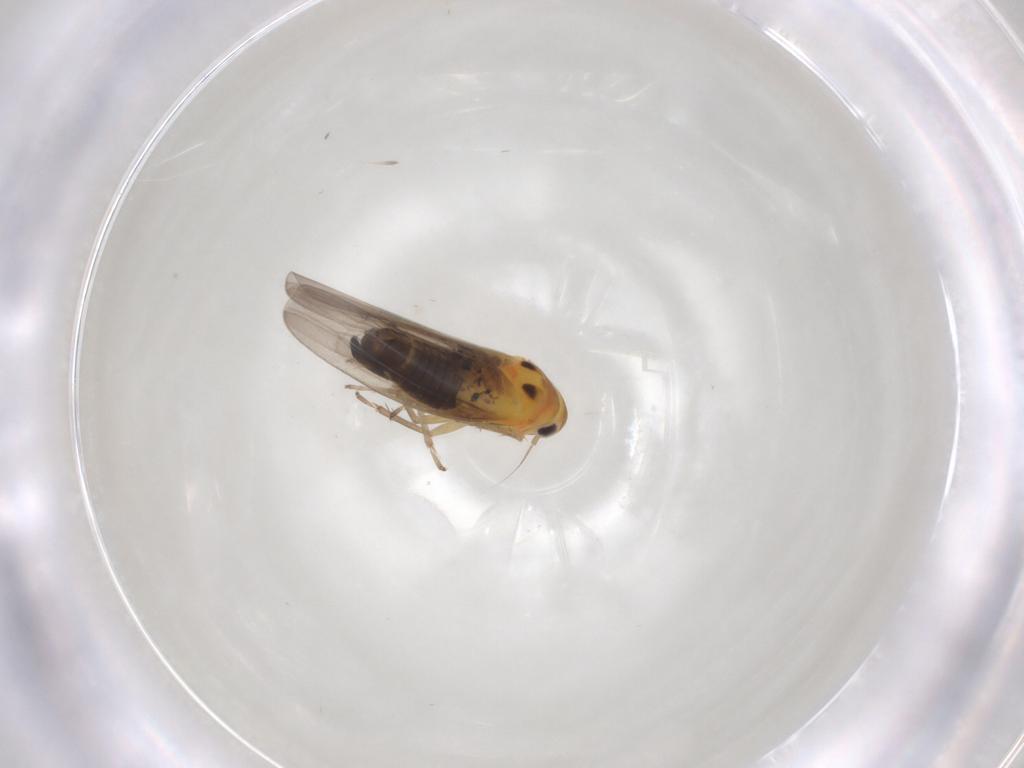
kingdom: Animalia
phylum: Arthropoda
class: Insecta
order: Hemiptera
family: Cicadellidae
